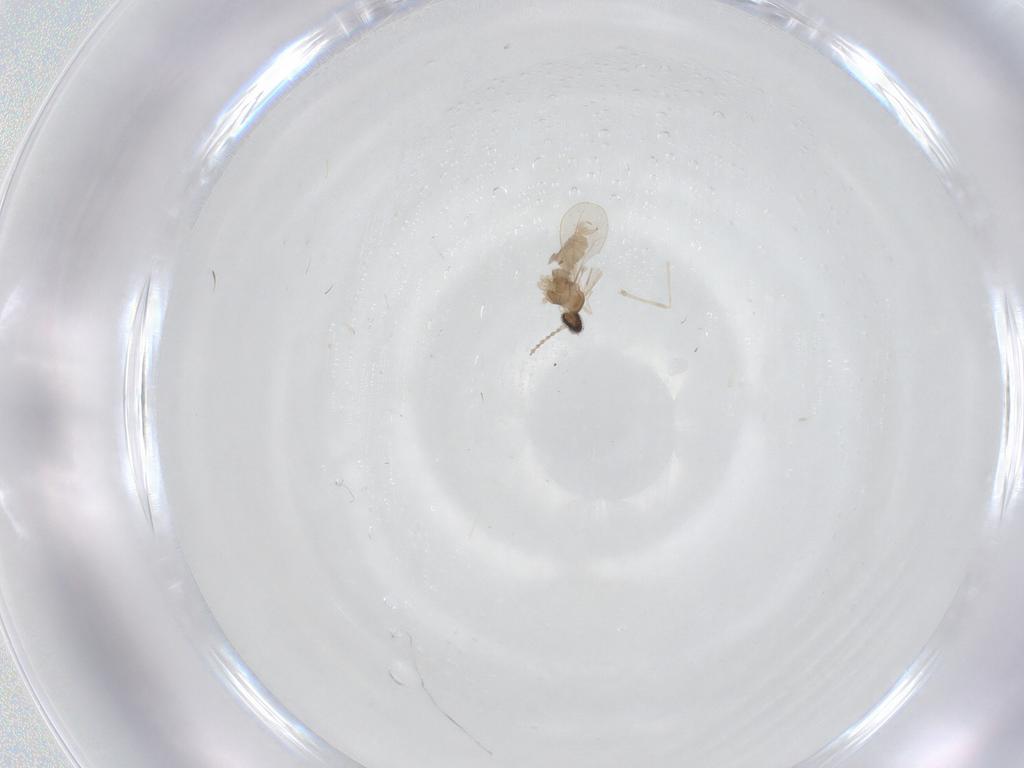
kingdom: Animalia
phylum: Arthropoda
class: Insecta
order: Diptera
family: Cecidomyiidae
